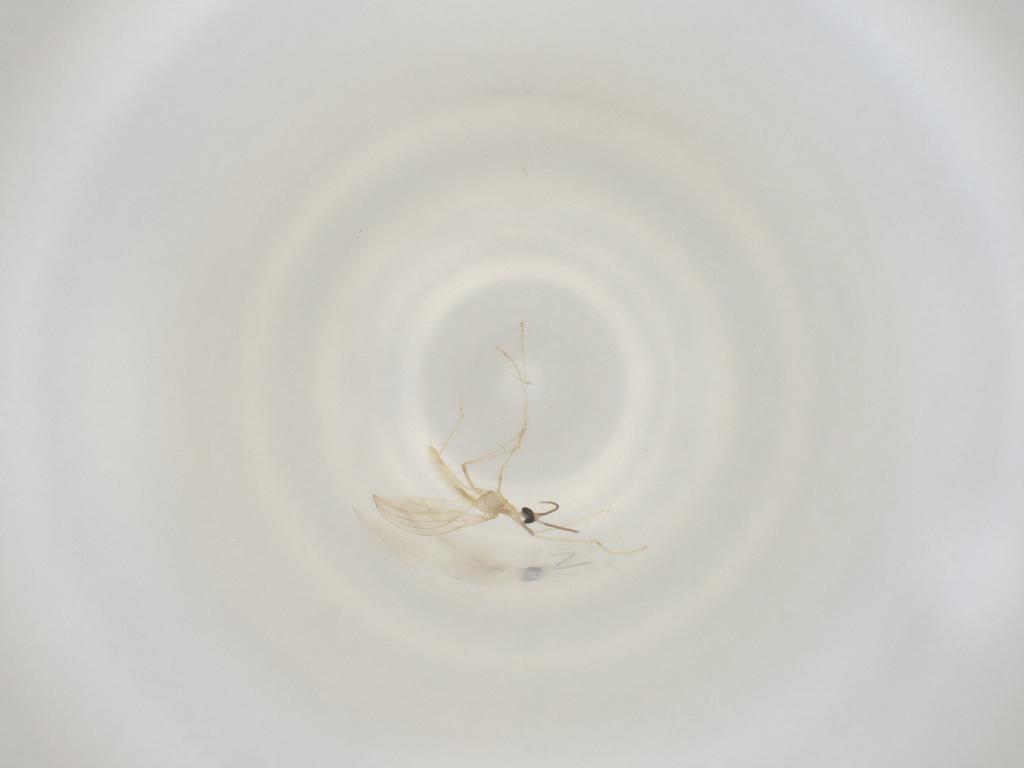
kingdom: Animalia
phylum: Arthropoda
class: Insecta
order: Diptera
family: Cecidomyiidae
